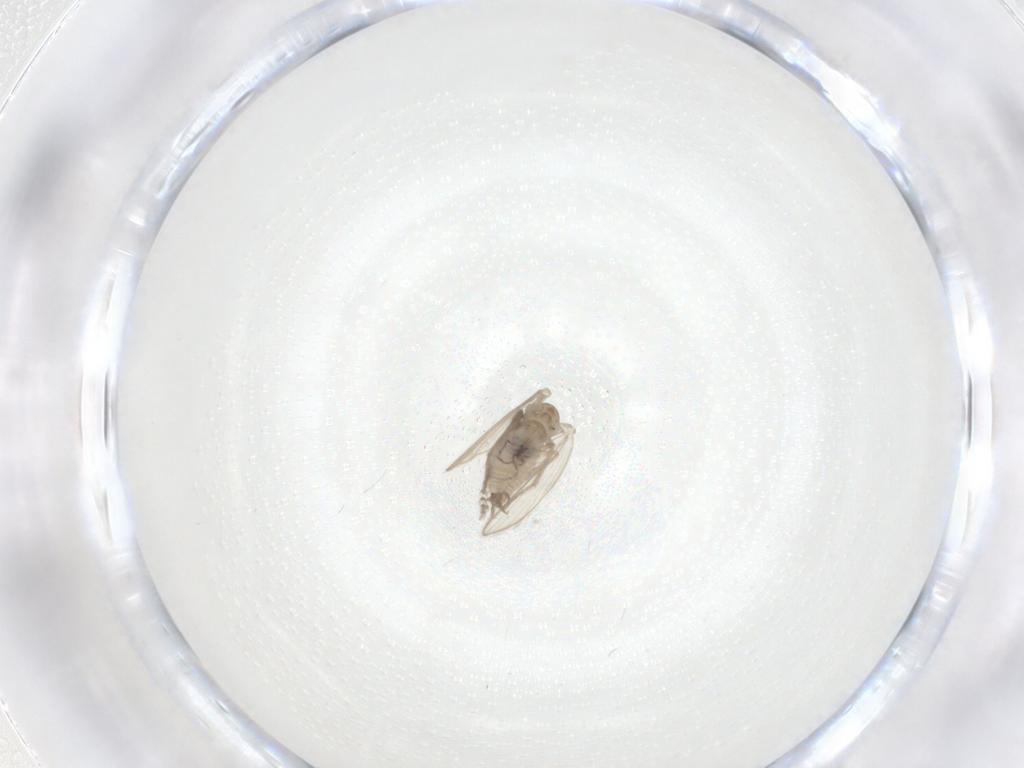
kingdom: Animalia
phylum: Arthropoda
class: Insecta
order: Diptera
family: Psychodidae
